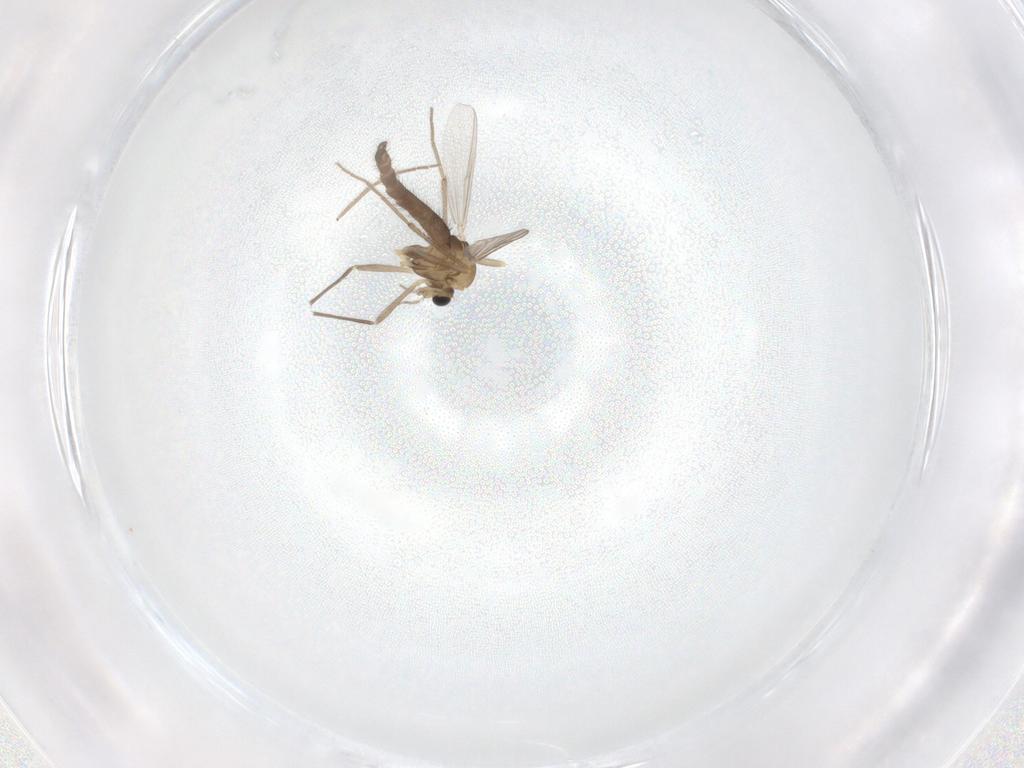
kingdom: Animalia
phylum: Arthropoda
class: Insecta
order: Diptera
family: Chironomidae
